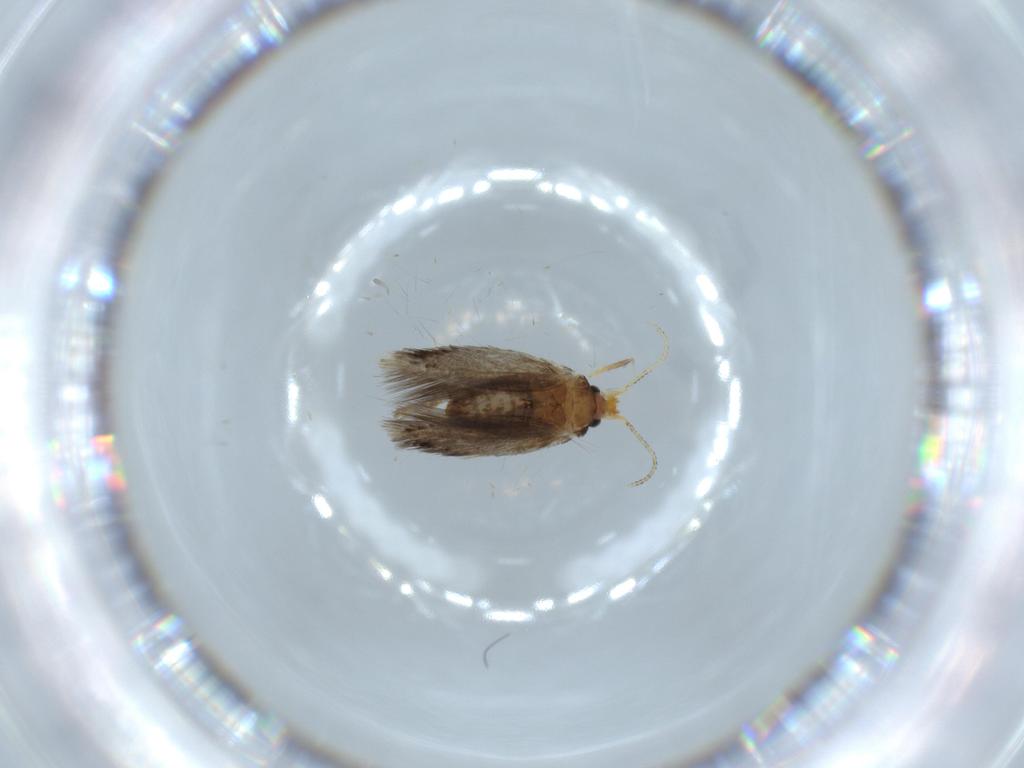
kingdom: Animalia
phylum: Arthropoda
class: Insecta
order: Lepidoptera
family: Nepticulidae
